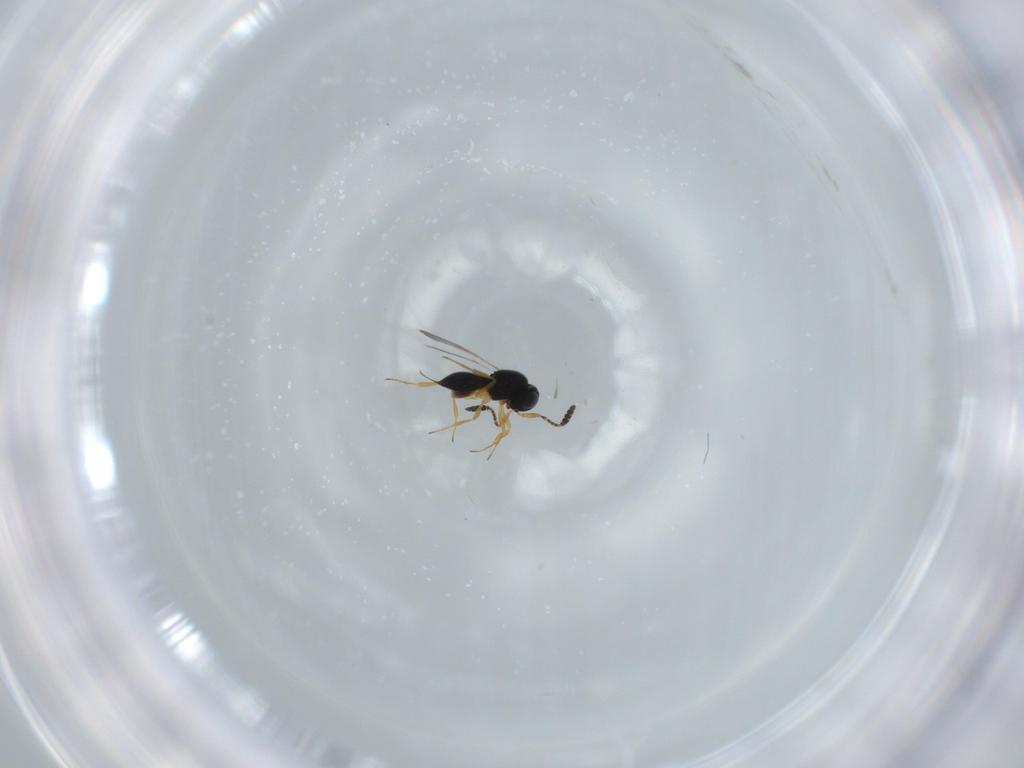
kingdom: Animalia
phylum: Arthropoda
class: Insecta
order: Hymenoptera
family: Scelionidae
